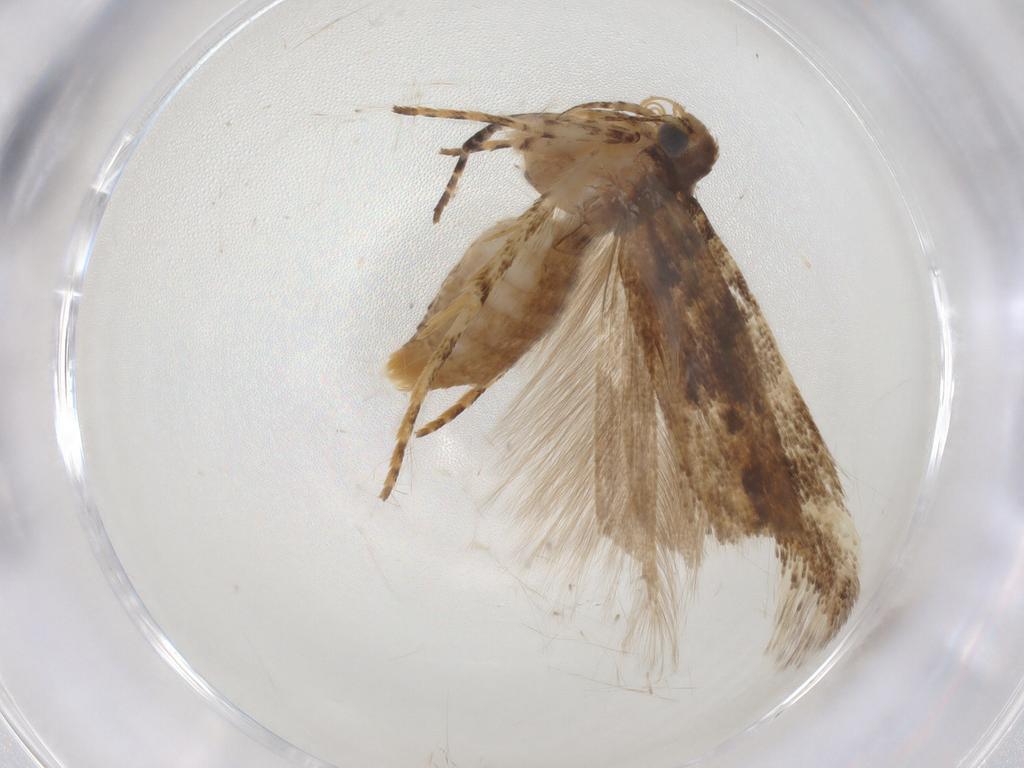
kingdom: Animalia
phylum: Arthropoda
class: Insecta
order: Lepidoptera
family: Gelechiidae
